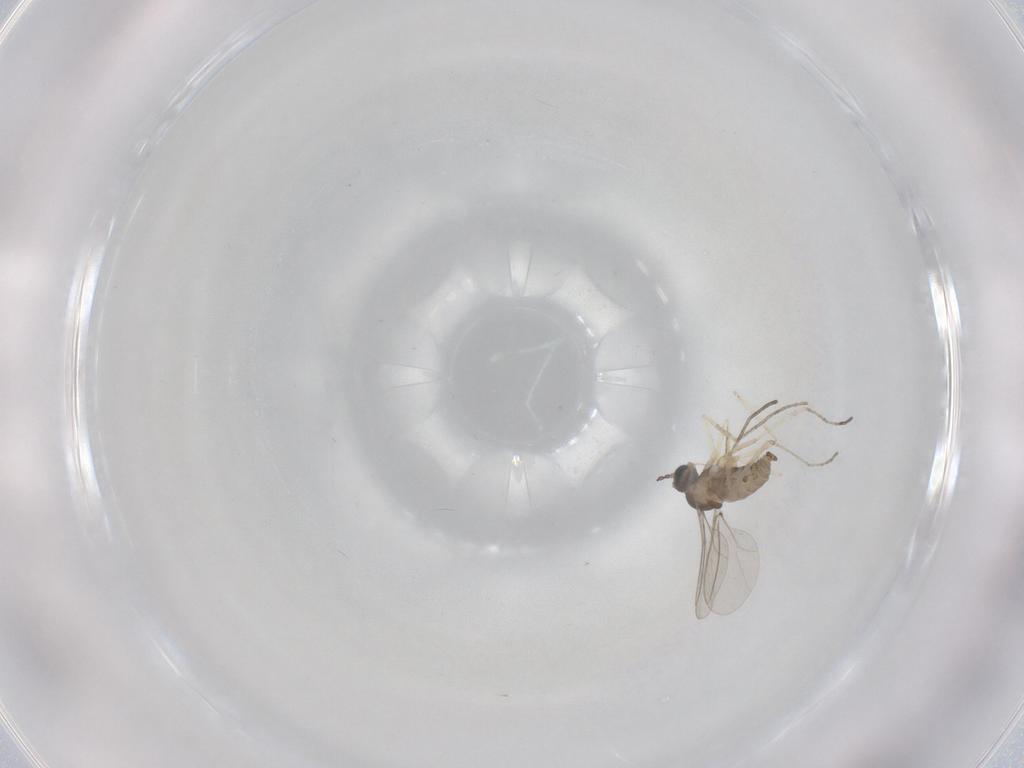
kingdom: Animalia
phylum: Arthropoda
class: Insecta
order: Diptera
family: Cecidomyiidae
